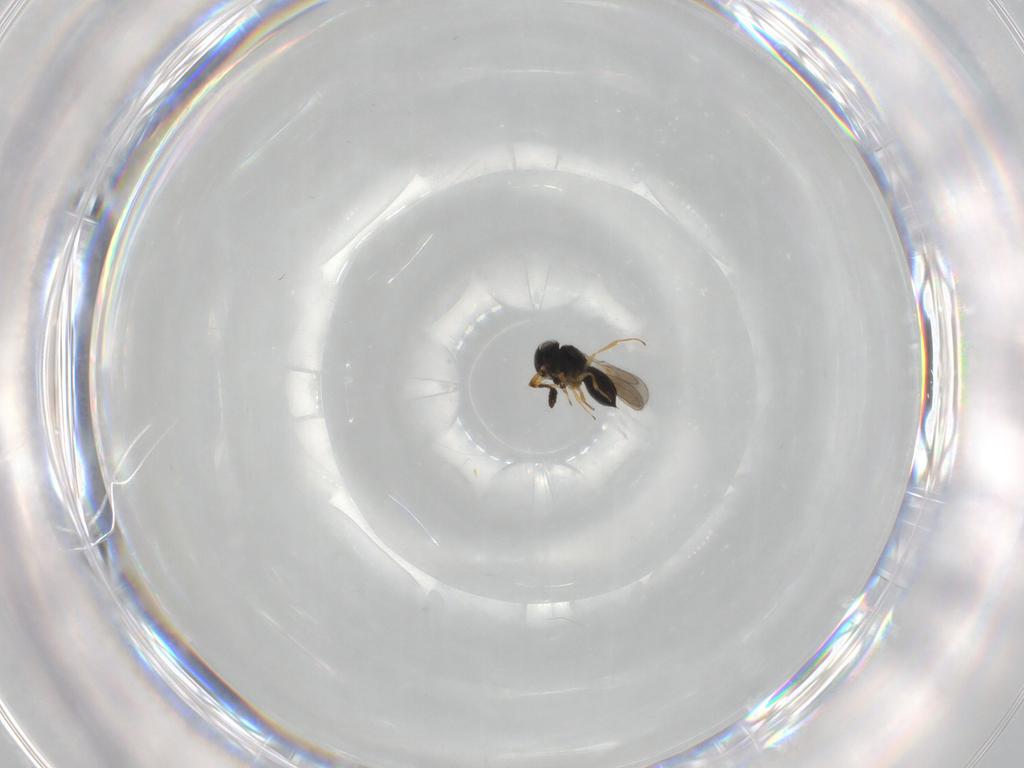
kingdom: Animalia
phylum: Arthropoda
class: Insecta
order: Hymenoptera
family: Scelionidae
